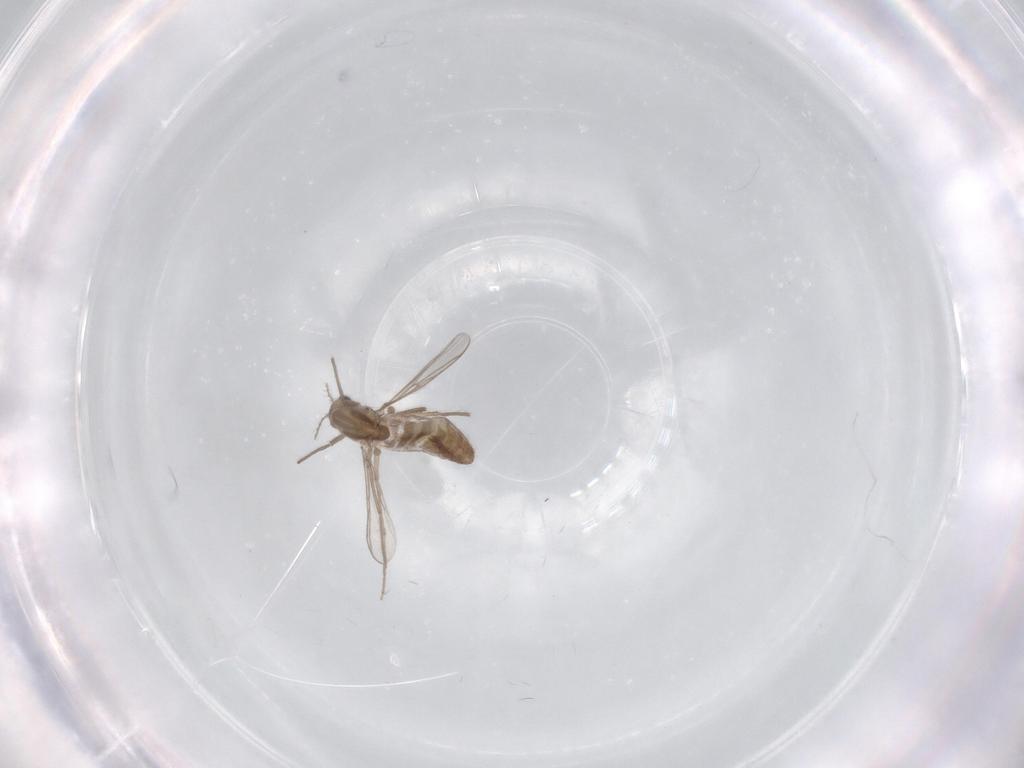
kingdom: Animalia
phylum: Arthropoda
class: Insecta
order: Diptera
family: Chironomidae
